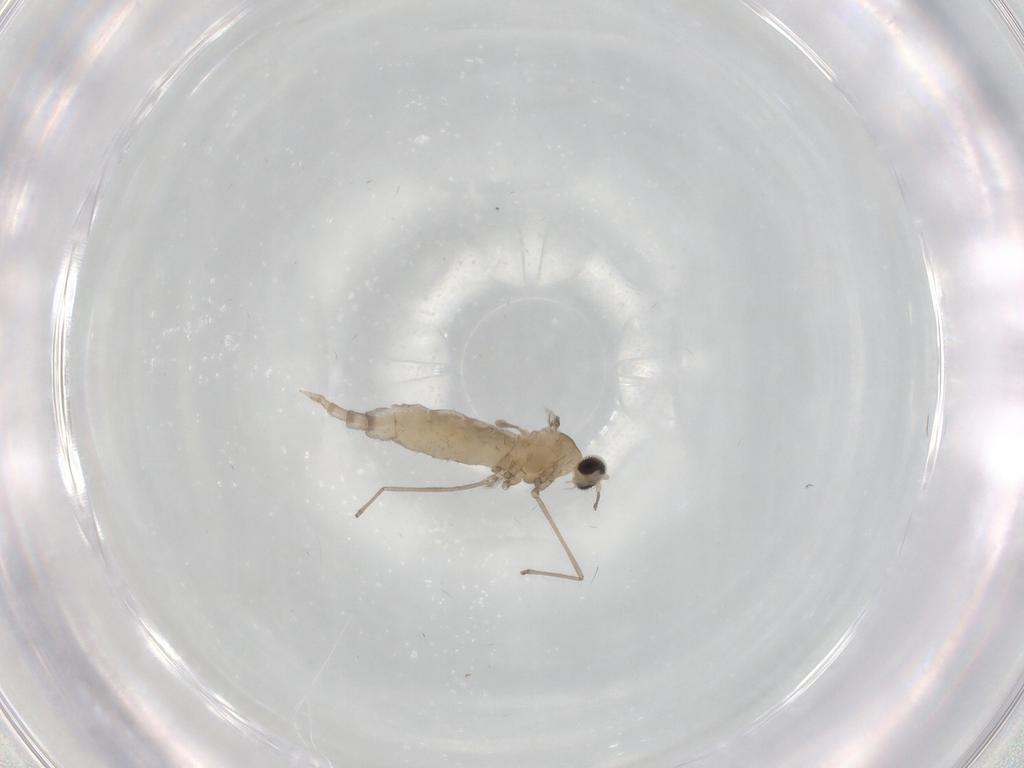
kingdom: Animalia
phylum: Arthropoda
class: Insecta
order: Diptera
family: Cecidomyiidae
